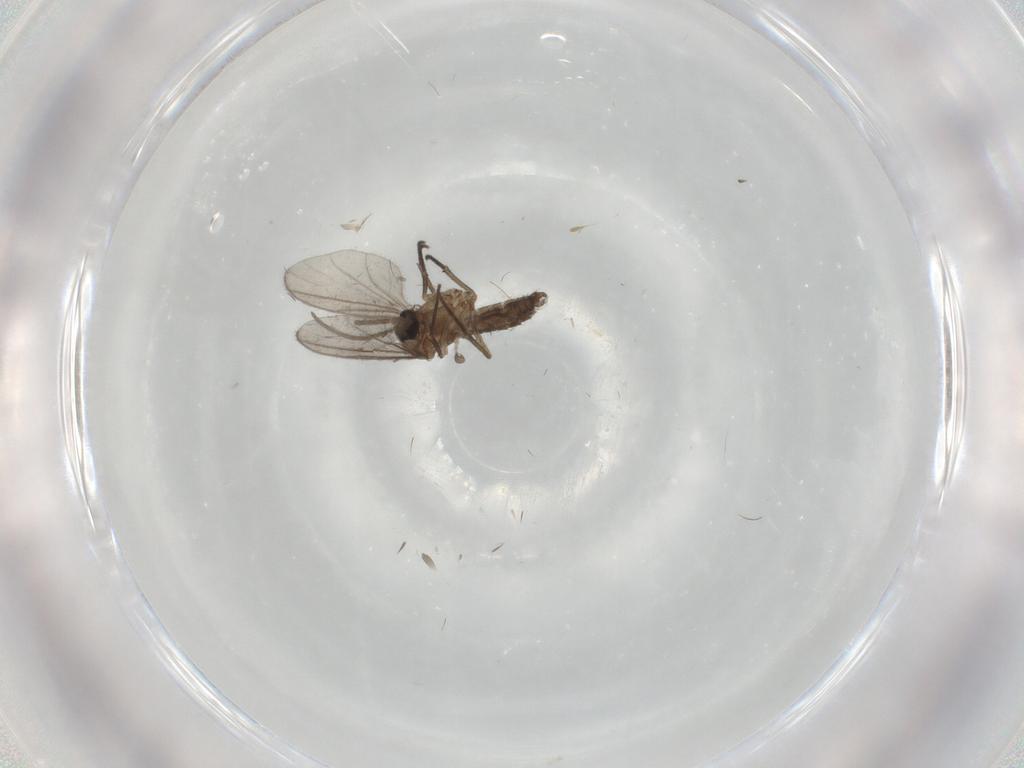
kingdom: Animalia
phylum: Arthropoda
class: Insecta
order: Diptera
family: Sciaridae
